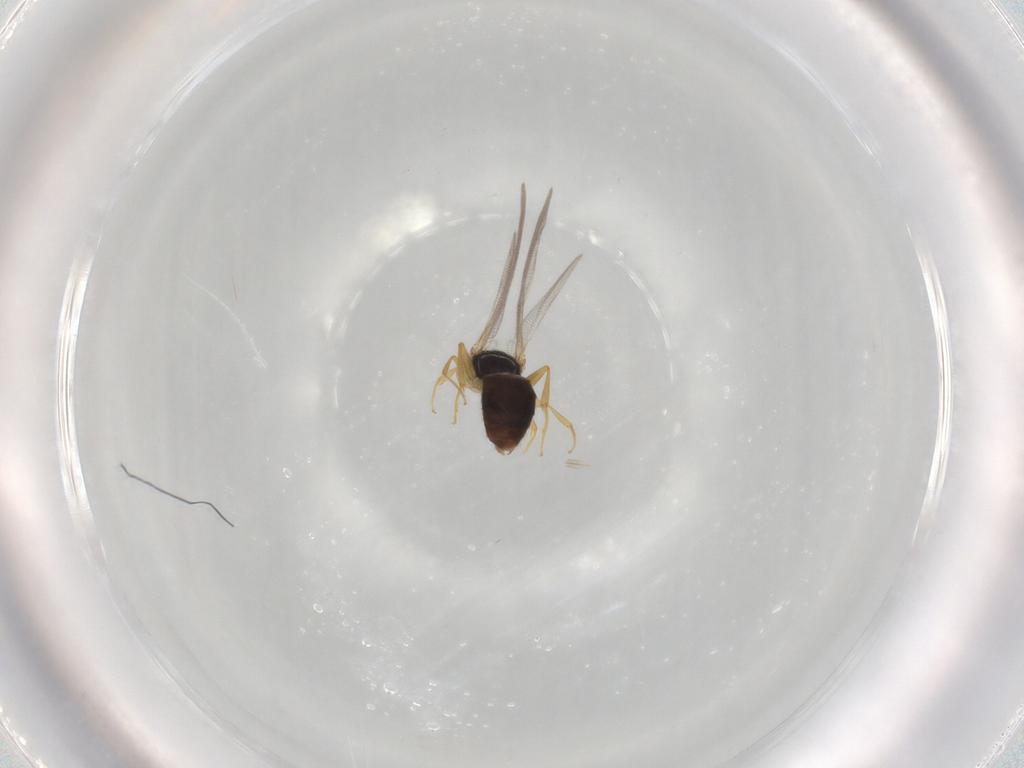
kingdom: Animalia
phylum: Arthropoda
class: Insecta
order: Hymenoptera
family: Bethylidae
